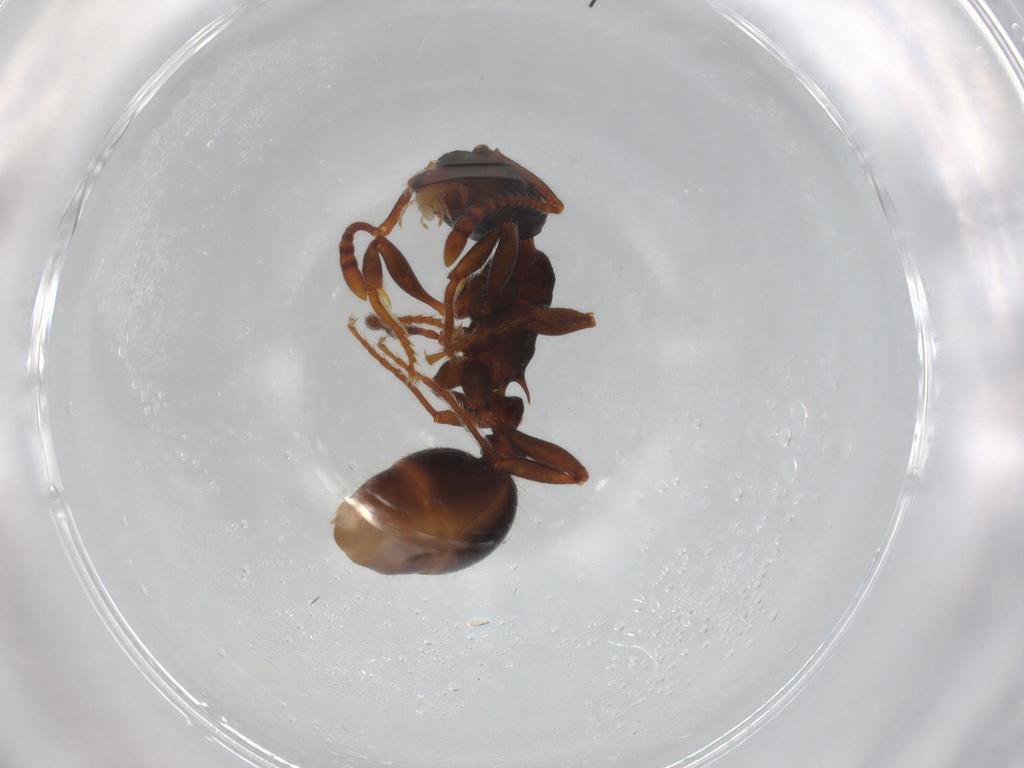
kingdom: Animalia
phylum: Arthropoda
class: Insecta
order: Hymenoptera
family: Formicidae
